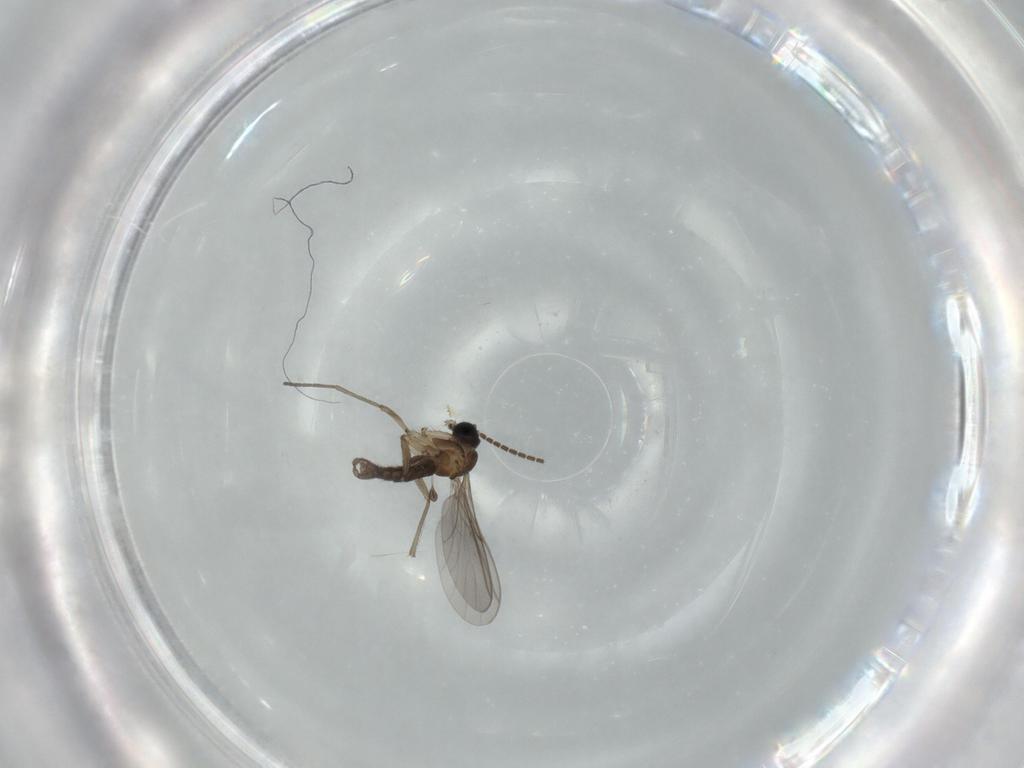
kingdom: Animalia
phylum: Arthropoda
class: Insecta
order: Diptera
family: Sciaridae
